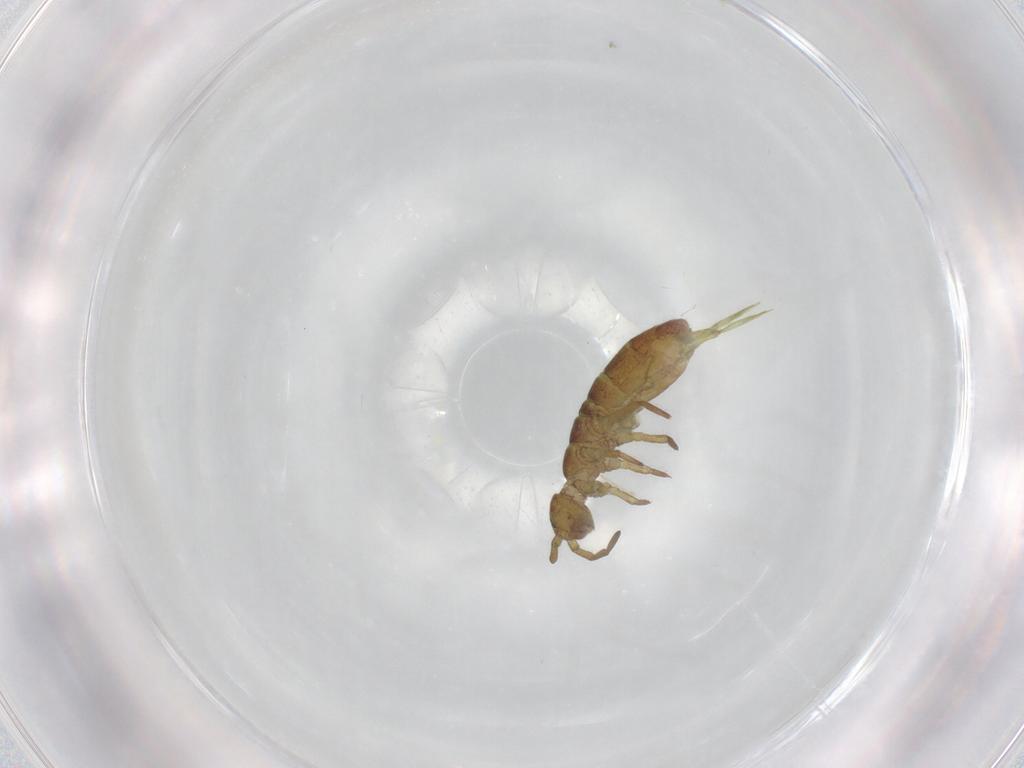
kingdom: Animalia
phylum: Arthropoda
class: Collembola
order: Entomobryomorpha
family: Isotomidae
